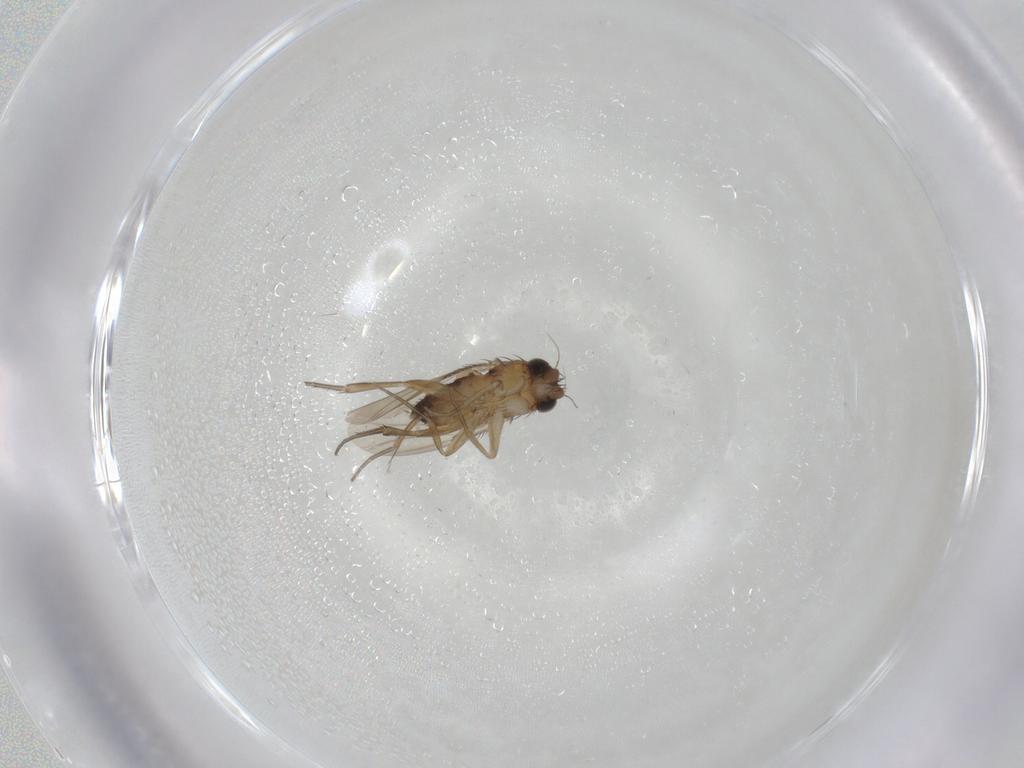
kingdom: Animalia
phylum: Arthropoda
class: Insecta
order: Diptera
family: Phoridae
